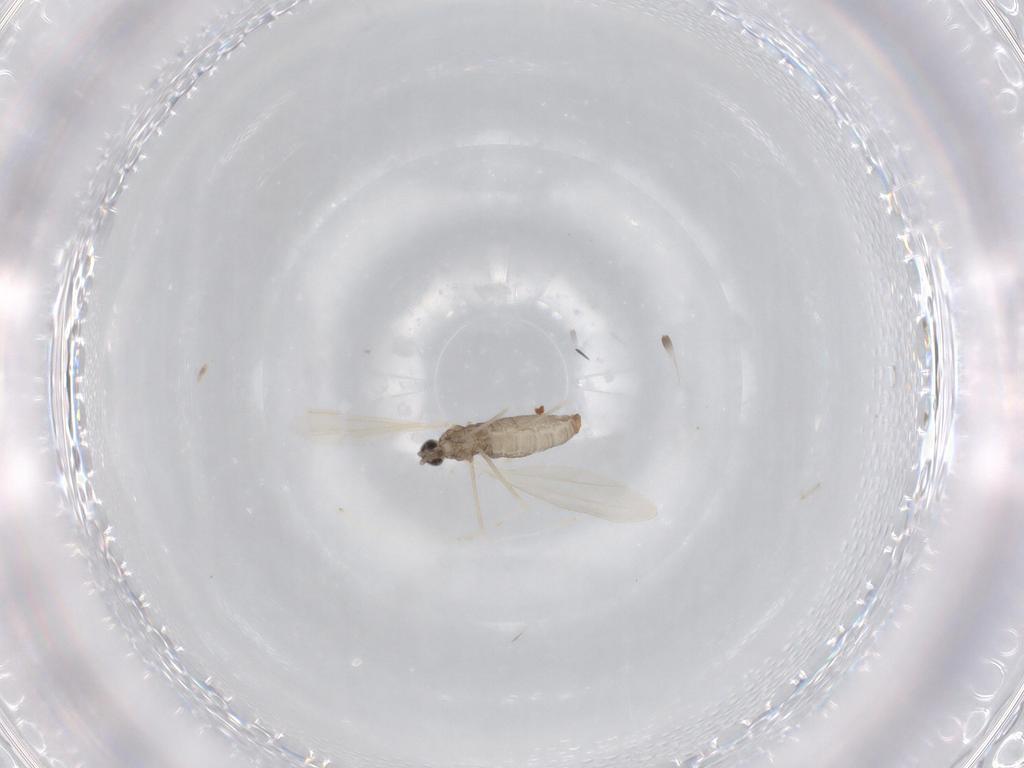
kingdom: Animalia
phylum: Arthropoda
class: Insecta
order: Diptera
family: Cecidomyiidae
